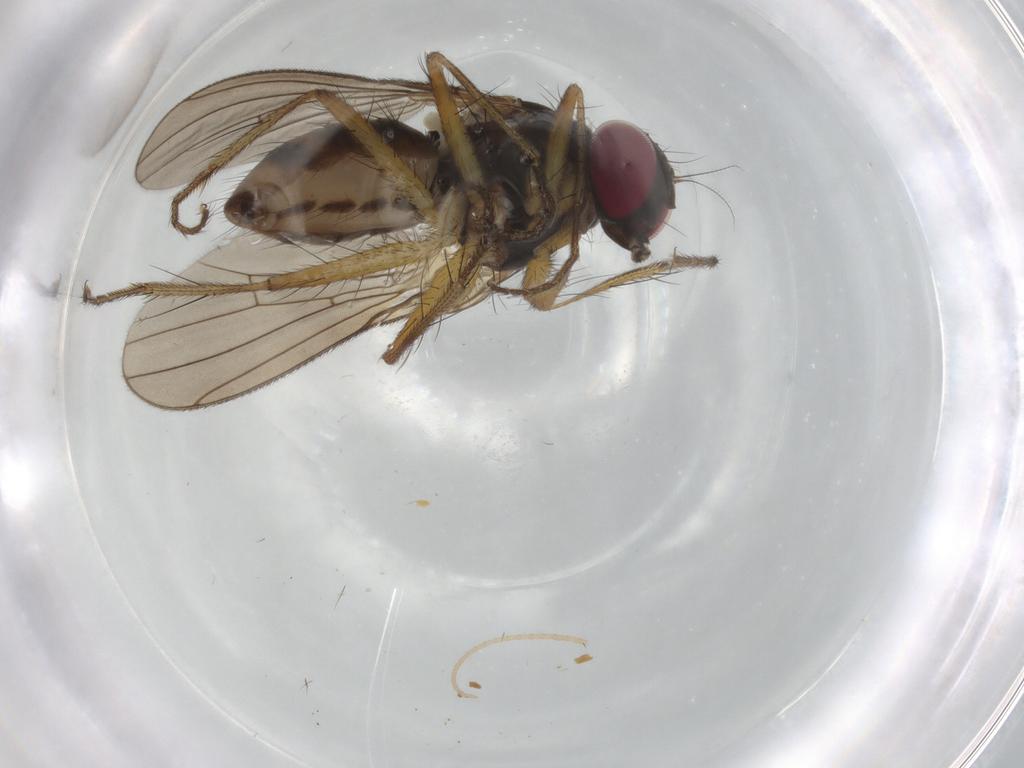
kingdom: Animalia
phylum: Arthropoda
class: Insecta
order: Diptera
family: Anthomyiidae
